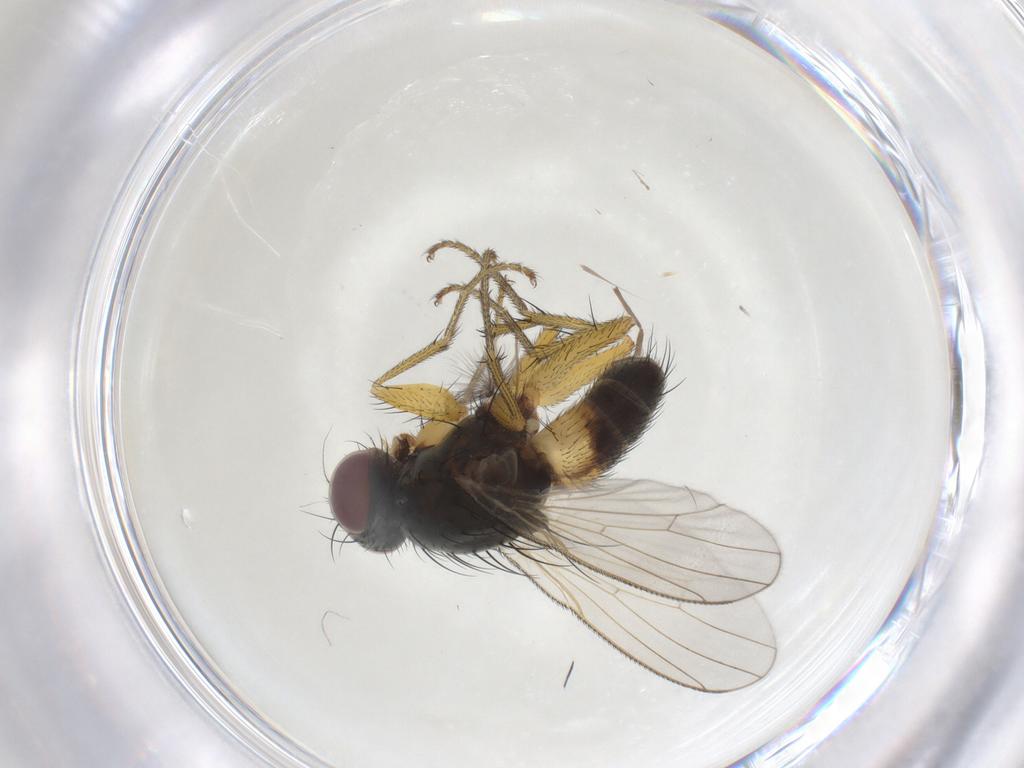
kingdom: Animalia
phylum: Arthropoda
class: Insecta
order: Diptera
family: Muscidae
